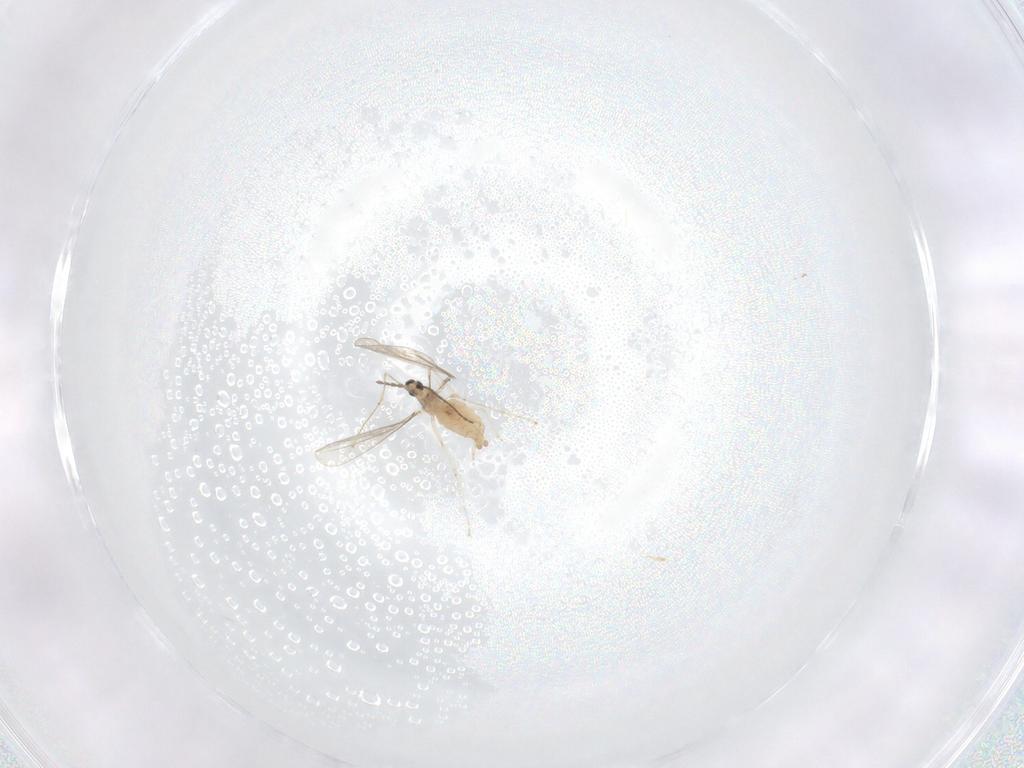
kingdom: Animalia
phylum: Arthropoda
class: Insecta
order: Diptera
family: Cecidomyiidae
